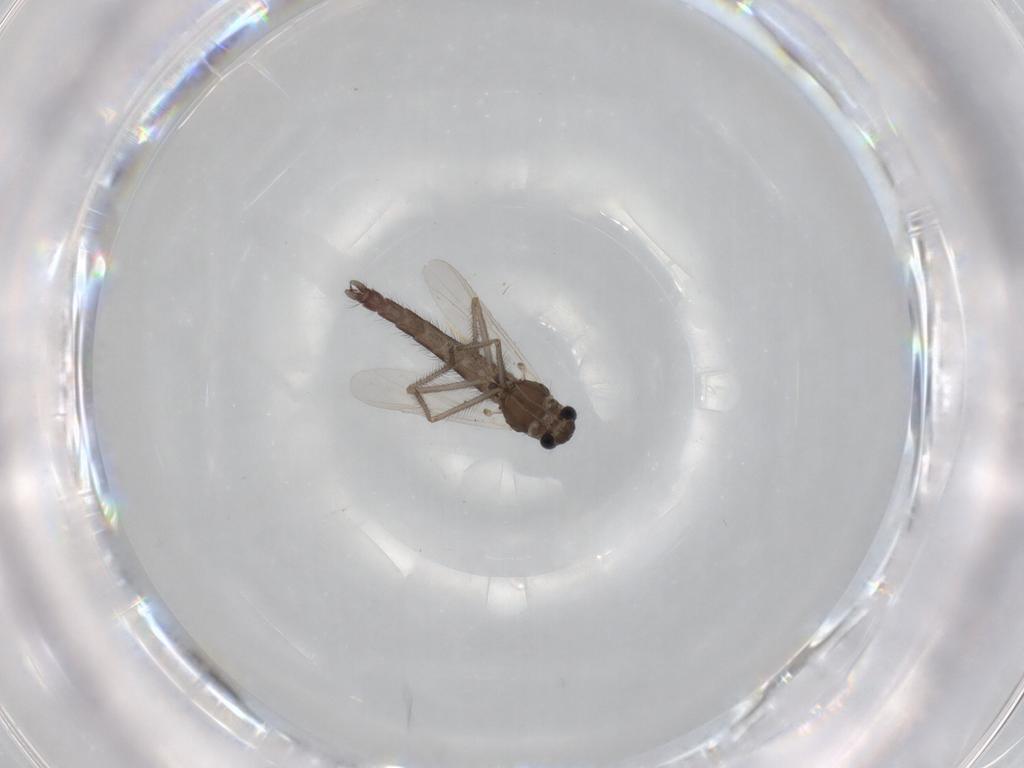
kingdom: Animalia
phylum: Arthropoda
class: Insecta
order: Diptera
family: Chironomidae
